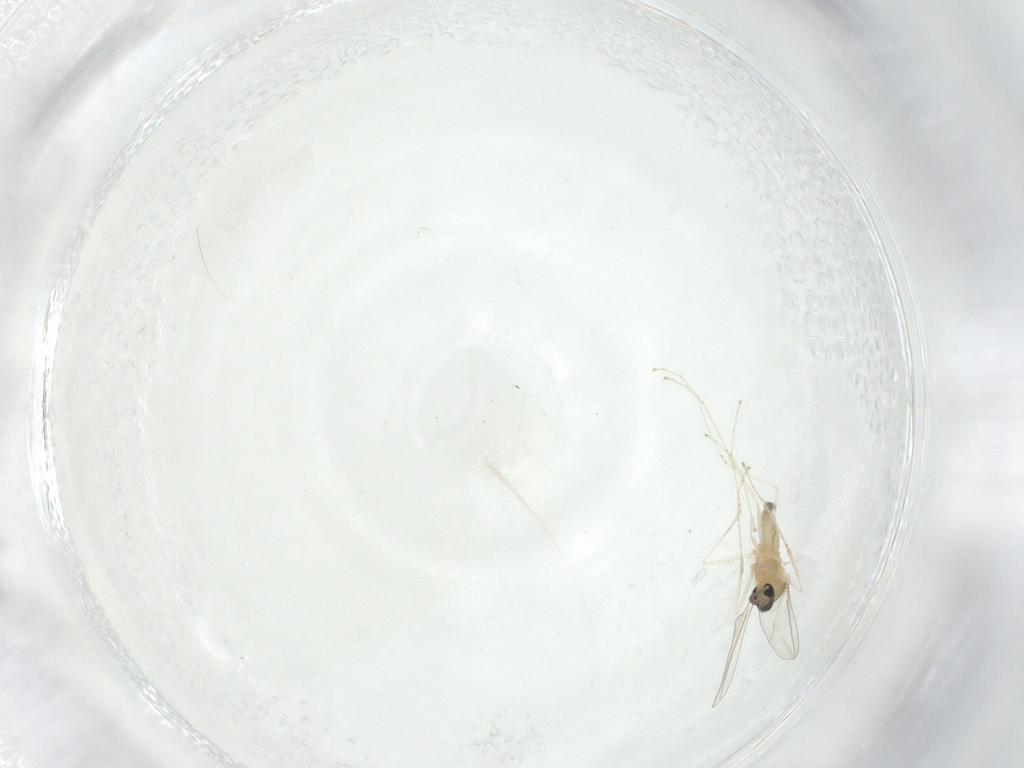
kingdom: Animalia
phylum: Arthropoda
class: Insecta
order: Diptera
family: Cecidomyiidae
